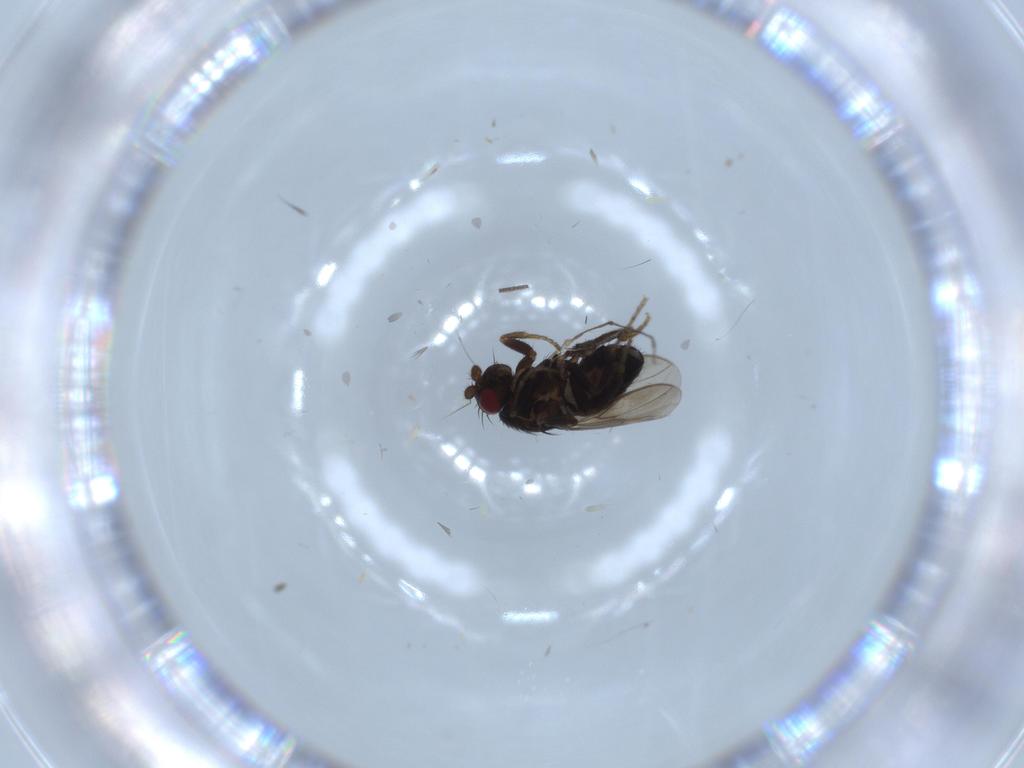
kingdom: Animalia
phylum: Arthropoda
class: Insecta
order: Diptera
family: Sphaeroceridae
